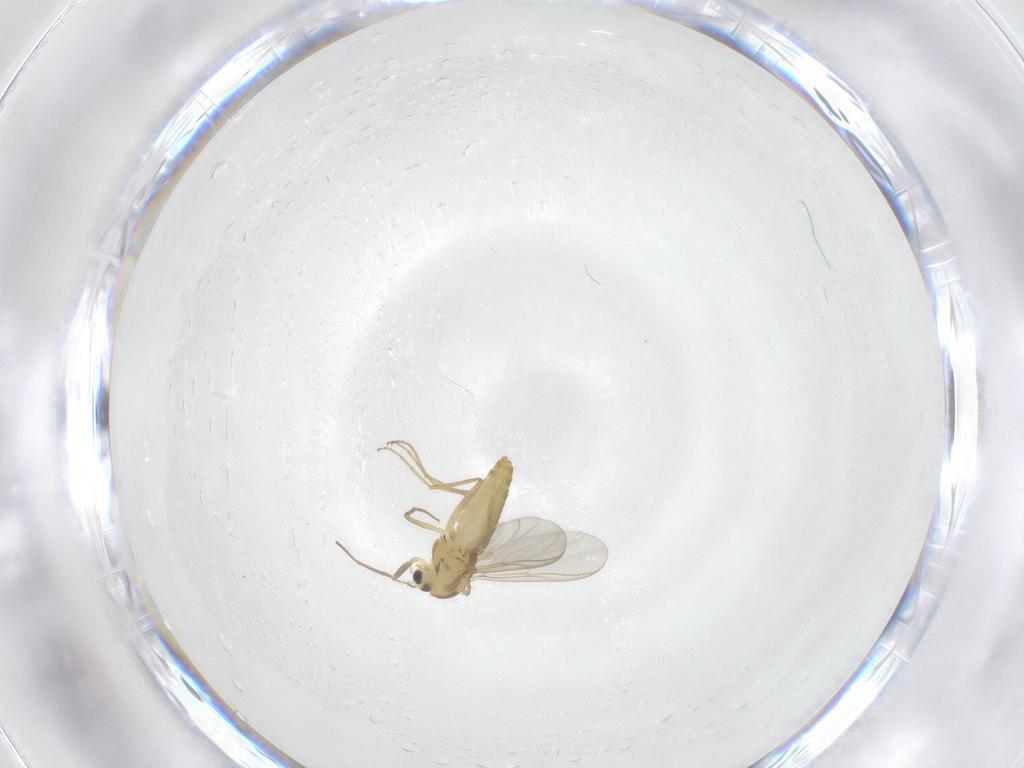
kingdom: Animalia
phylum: Arthropoda
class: Insecta
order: Diptera
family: Chironomidae
